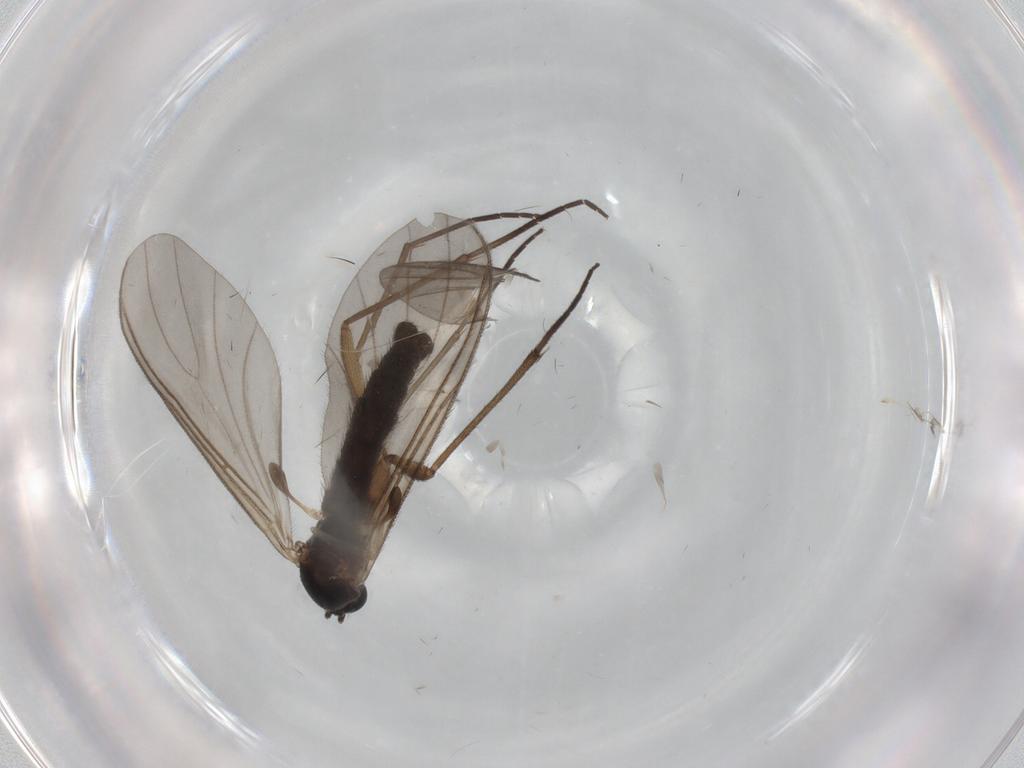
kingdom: Animalia
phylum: Arthropoda
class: Insecta
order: Diptera
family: Sciaridae
